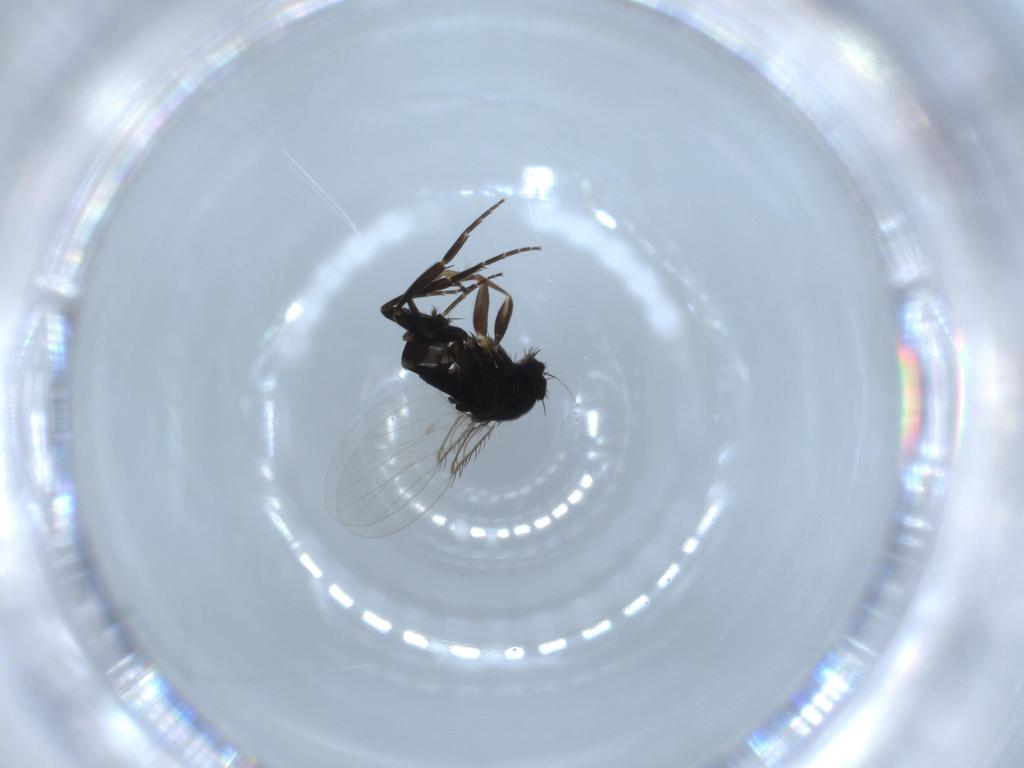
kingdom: Animalia
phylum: Arthropoda
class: Insecta
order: Diptera
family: Phoridae
